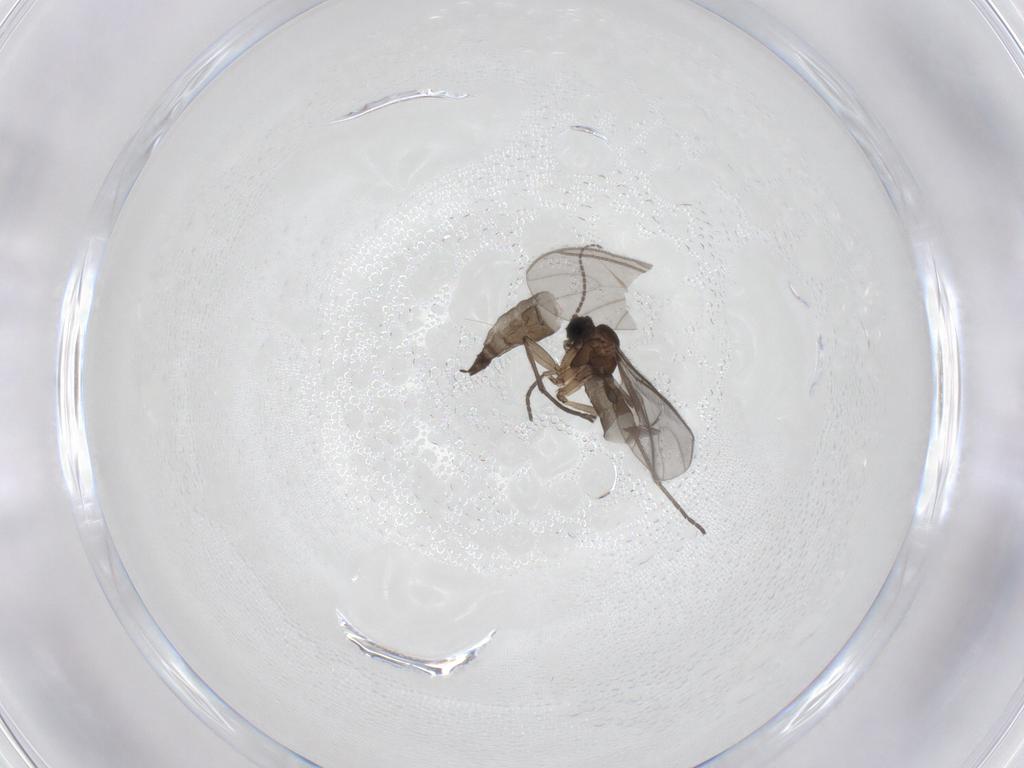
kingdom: Animalia
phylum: Arthropoda
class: Insecta
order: Diptera
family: Sciaridae
